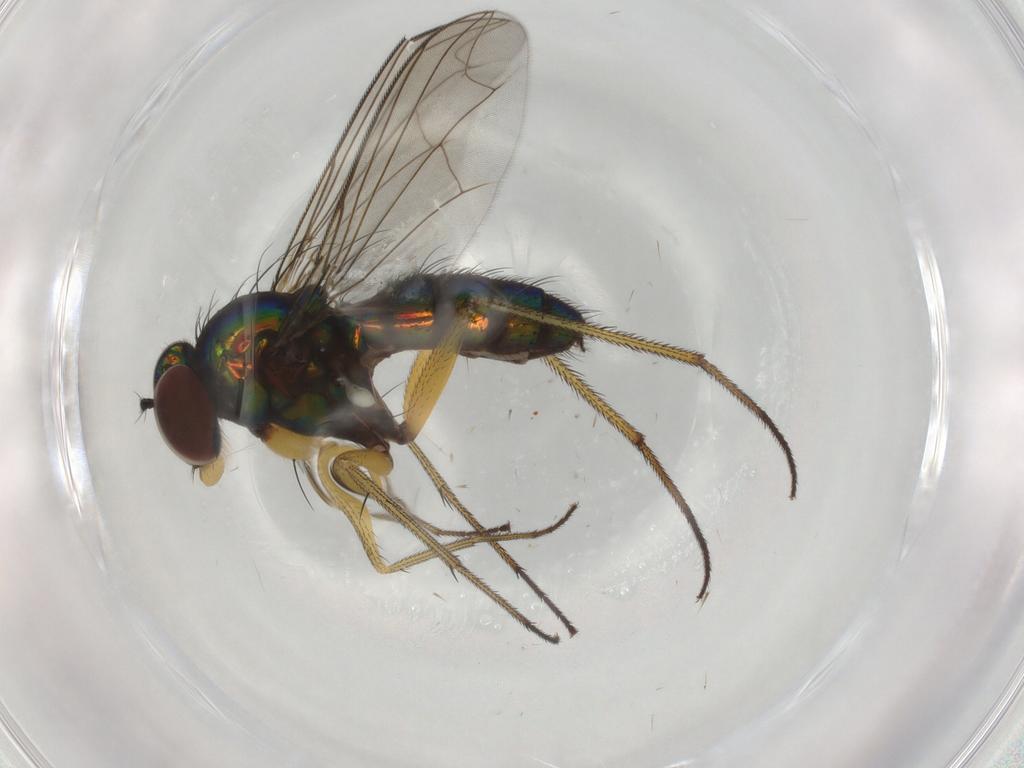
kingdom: Animalia
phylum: Arthropoda
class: Insecta
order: Diptera
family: Dolichopodidae
